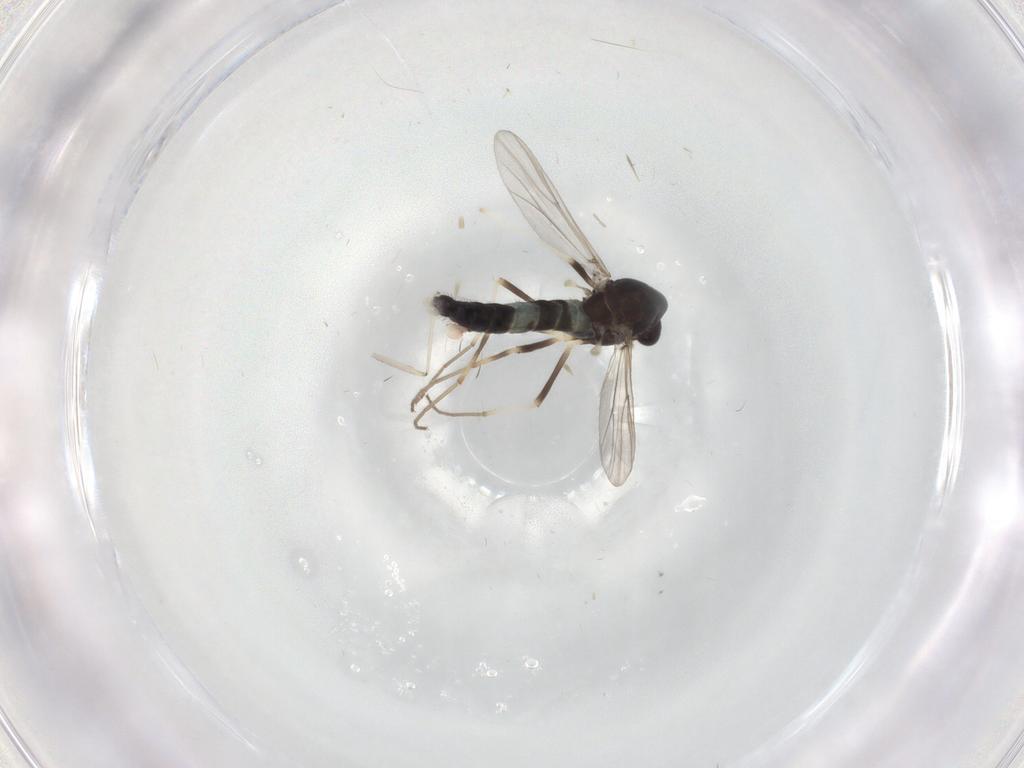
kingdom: Animalia
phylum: Arthropoda
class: Insecta
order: Diptera
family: Chironomidae
